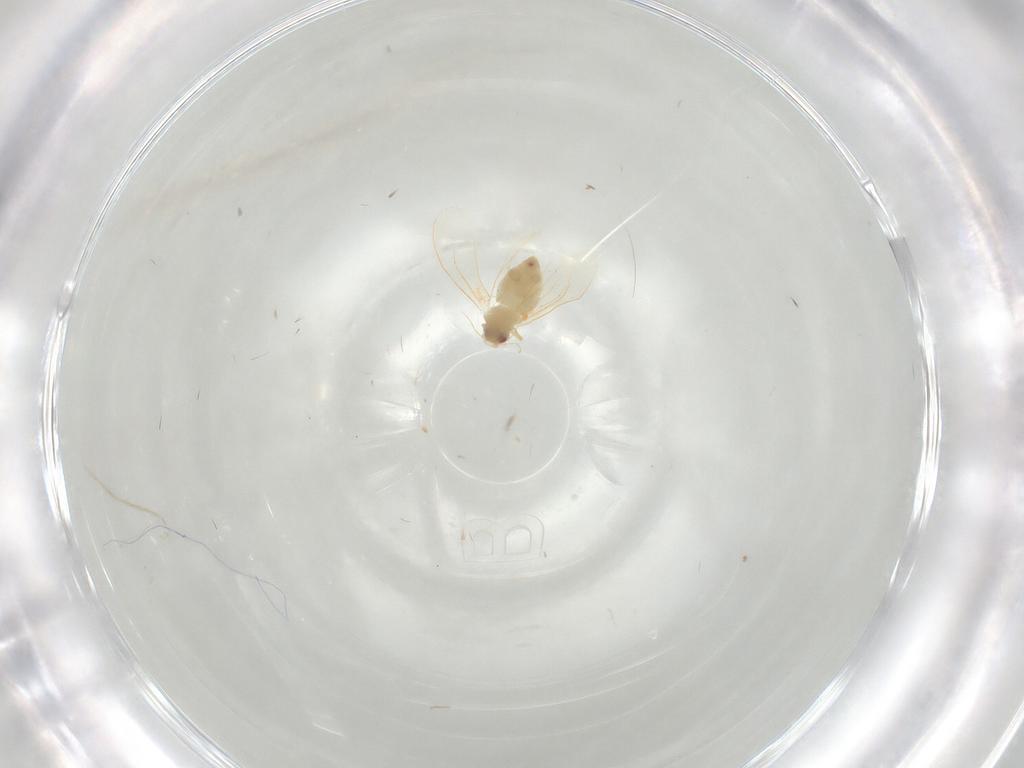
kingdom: Animalia
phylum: Arthropoda
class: Insecta
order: Hemiptera
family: Aleyrodidae
